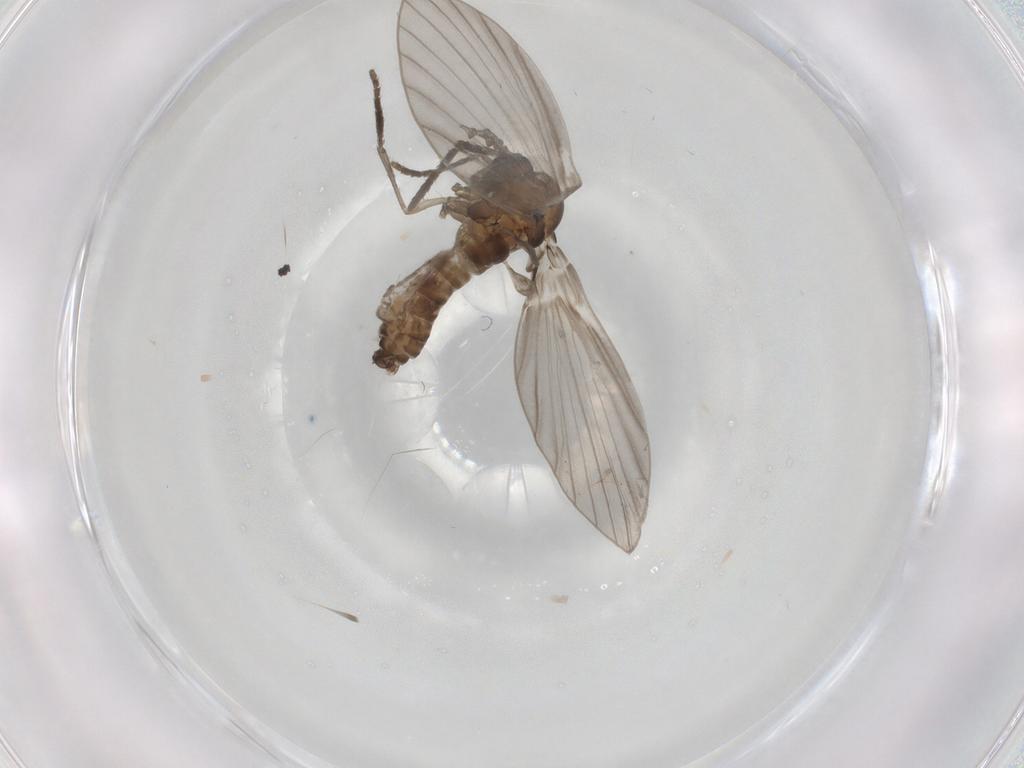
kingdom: Animalia
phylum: Arthropoda
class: Insecta
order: Diptera
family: Psychodidae
